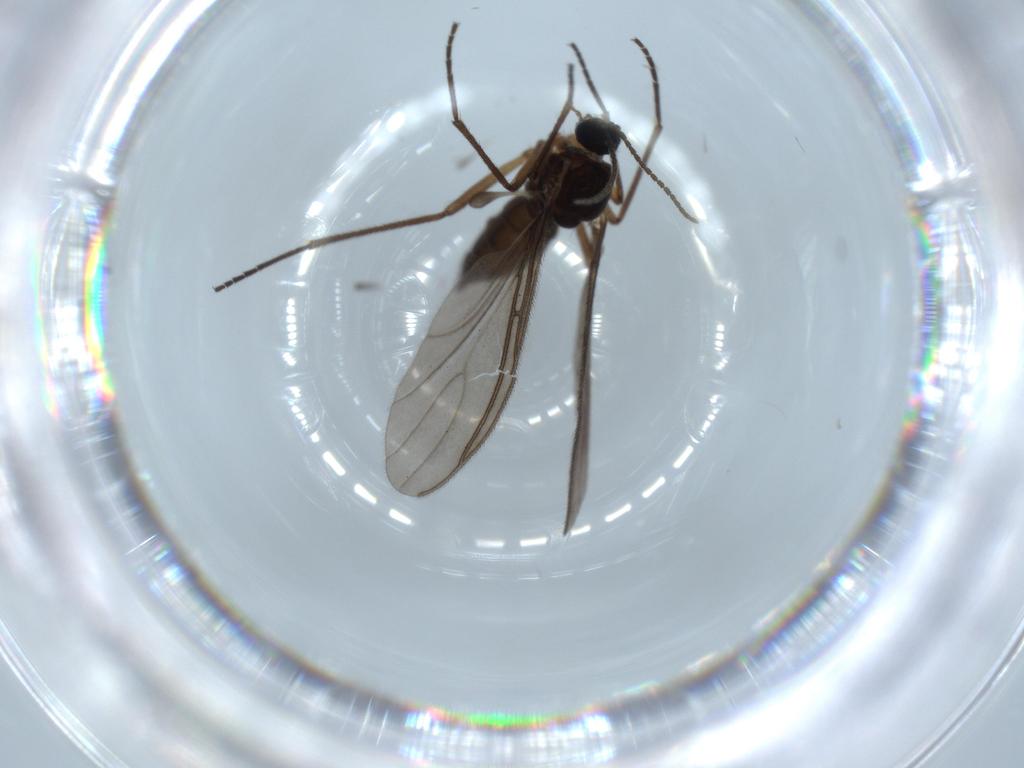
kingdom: Animalia
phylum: Arthropoda
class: Insecta
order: Diptera
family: Sciaridae
